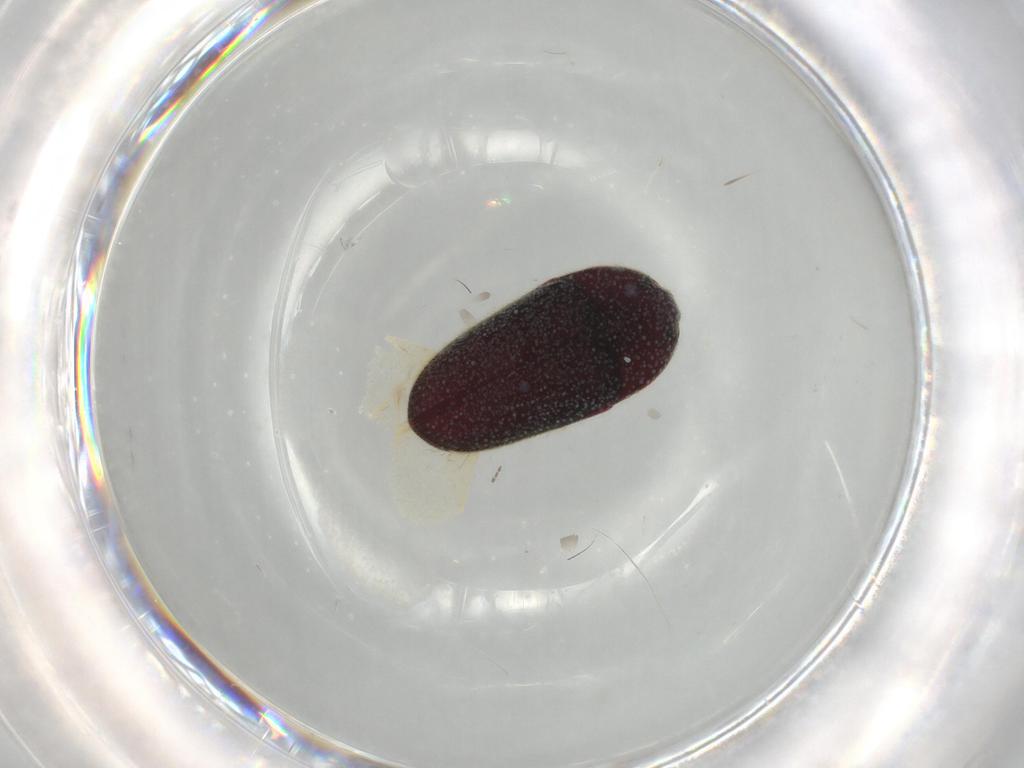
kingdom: Animalia
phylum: Arthropoda
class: Insecta
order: Coleoptera
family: Throscidae
